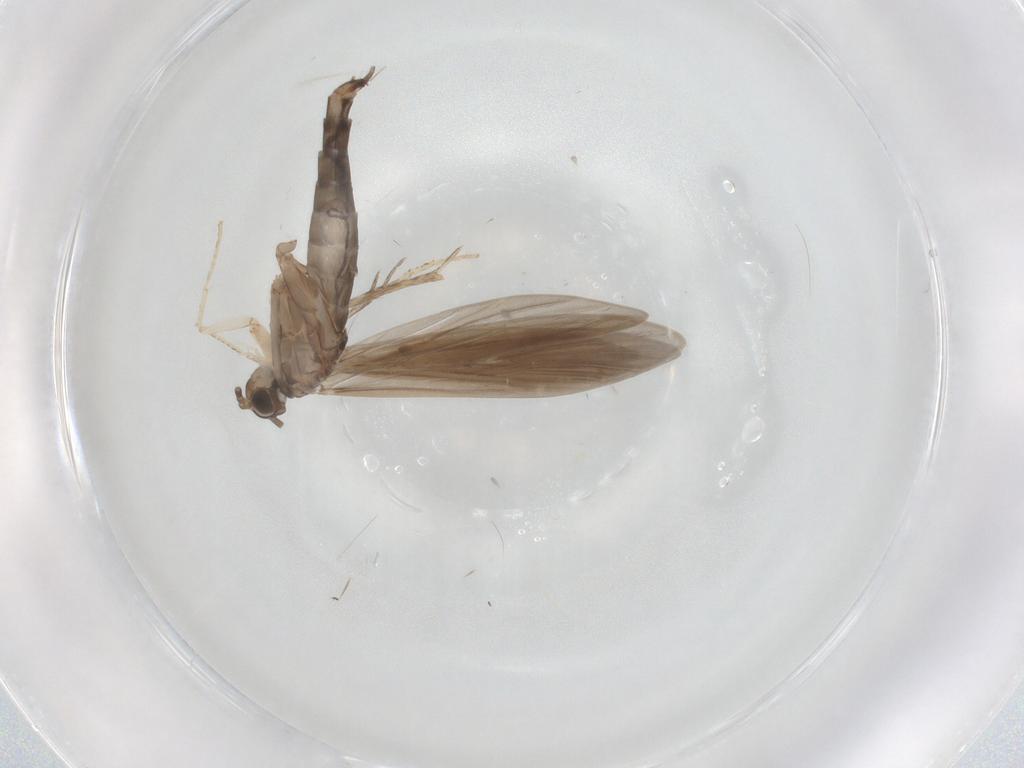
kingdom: Animalia
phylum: Arthropoda
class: Insecta
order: Trichoptera
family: Xiphocentronidae
